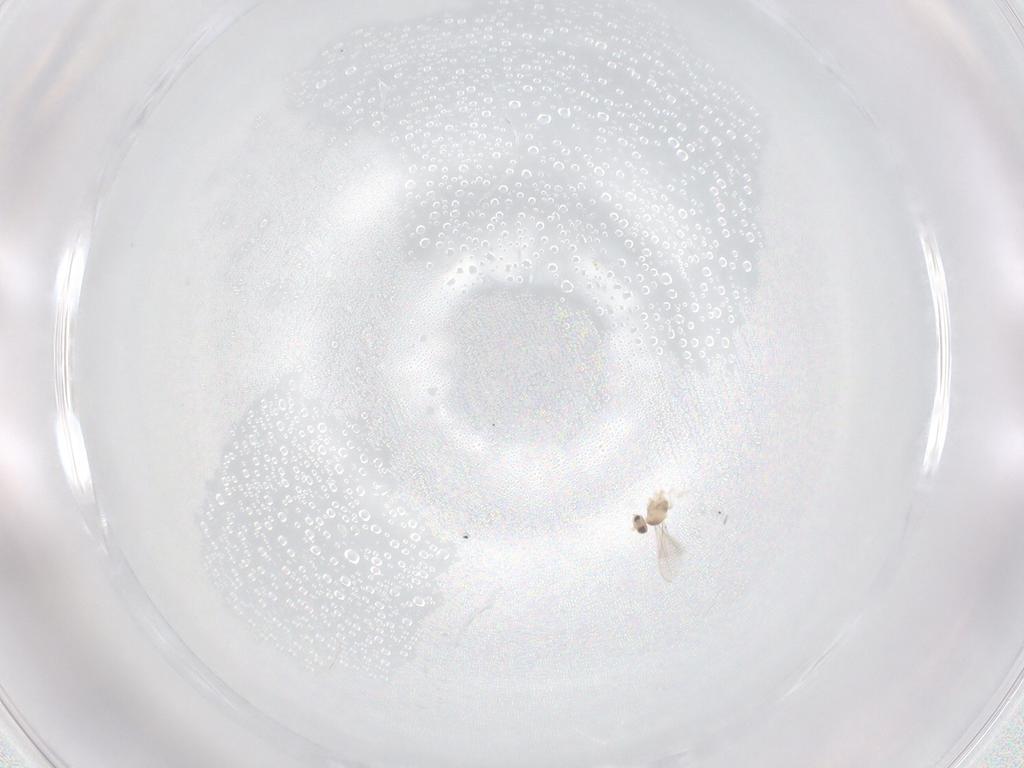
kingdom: Animalia
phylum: Arthropoda
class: Insecta
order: Diptera
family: Cecidomyiidae
